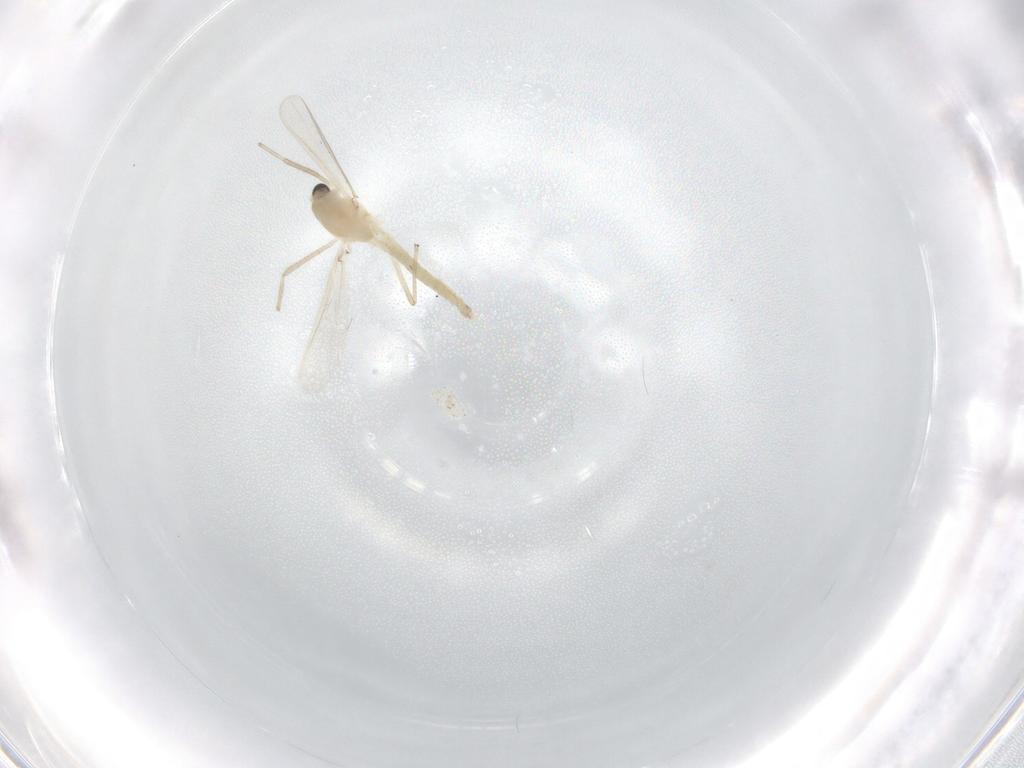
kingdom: Animalia
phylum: Arthropoda
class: Insecta
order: Diptera
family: Chironomidae
